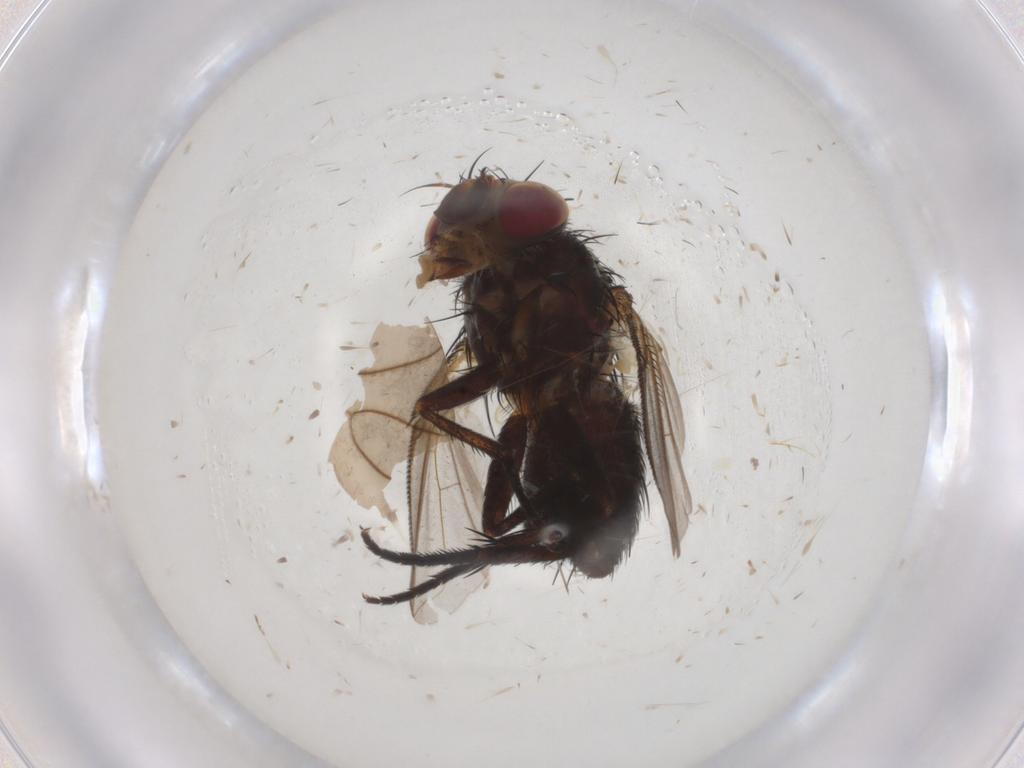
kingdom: Animalia
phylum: Arthropoda
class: Insecta
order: Diptera
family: Tachinidae
